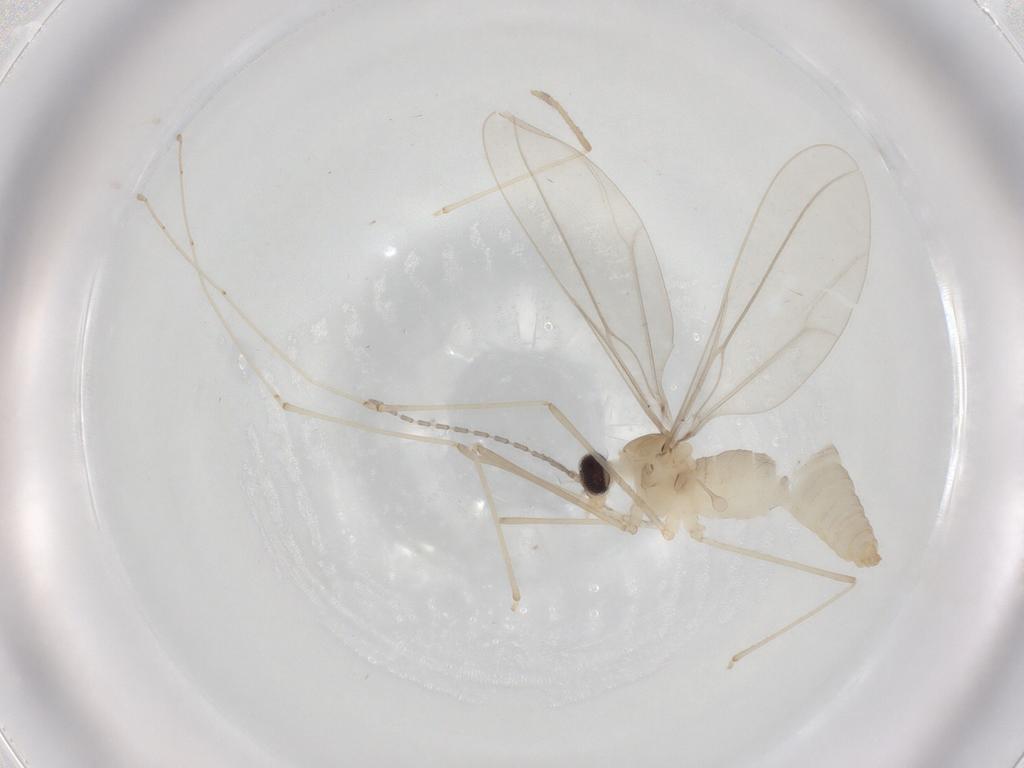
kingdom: Animalia
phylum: Arthropoda
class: Insecta
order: Diptera
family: Cecidomyiidae
